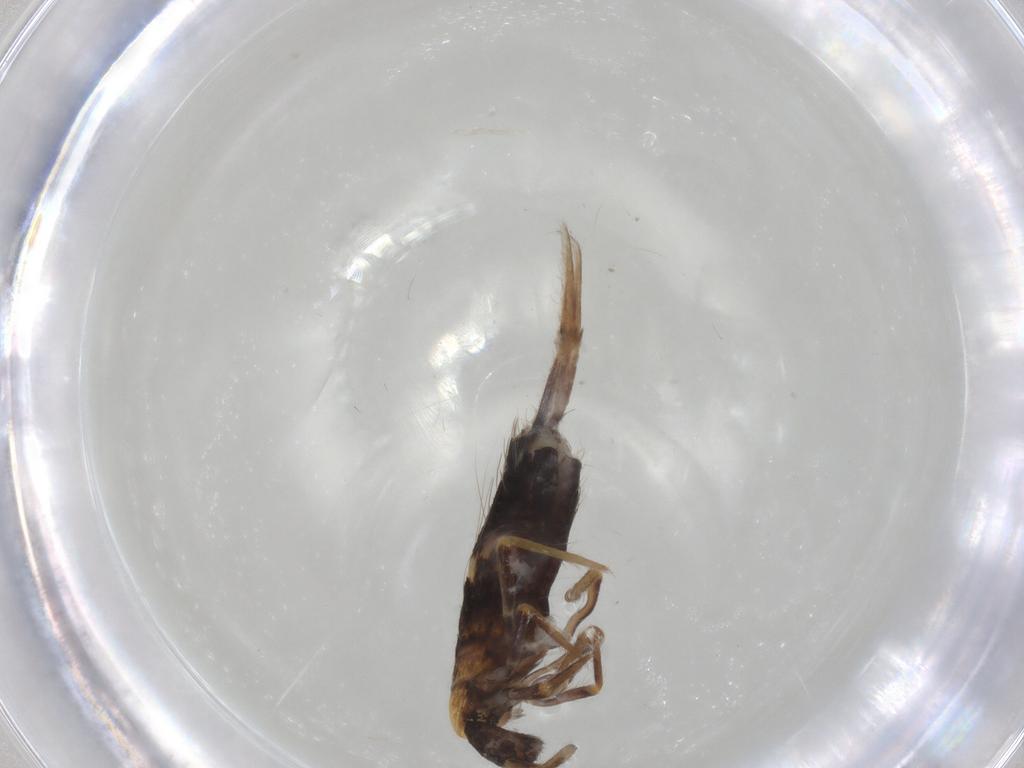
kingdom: Animalia
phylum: Arthropoda
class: Collembola
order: Entomobryomorpha
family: Entomobryidae
